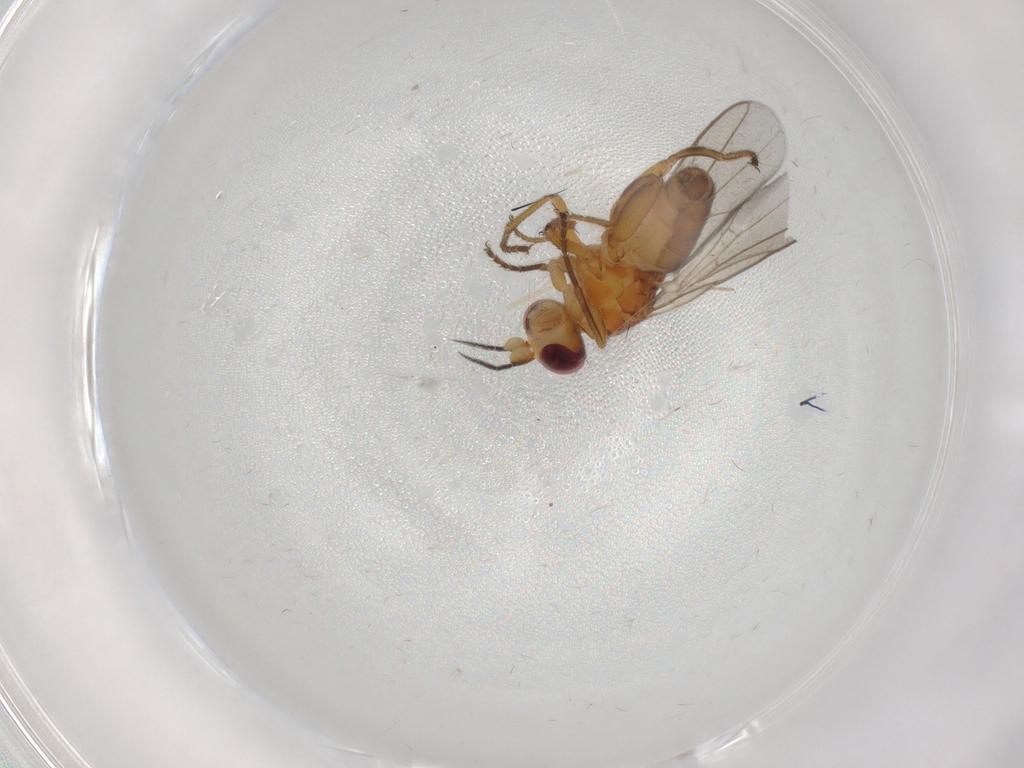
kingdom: Animalia
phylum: Arthropoda
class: Insecta
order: Diptera
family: Chloropidae
